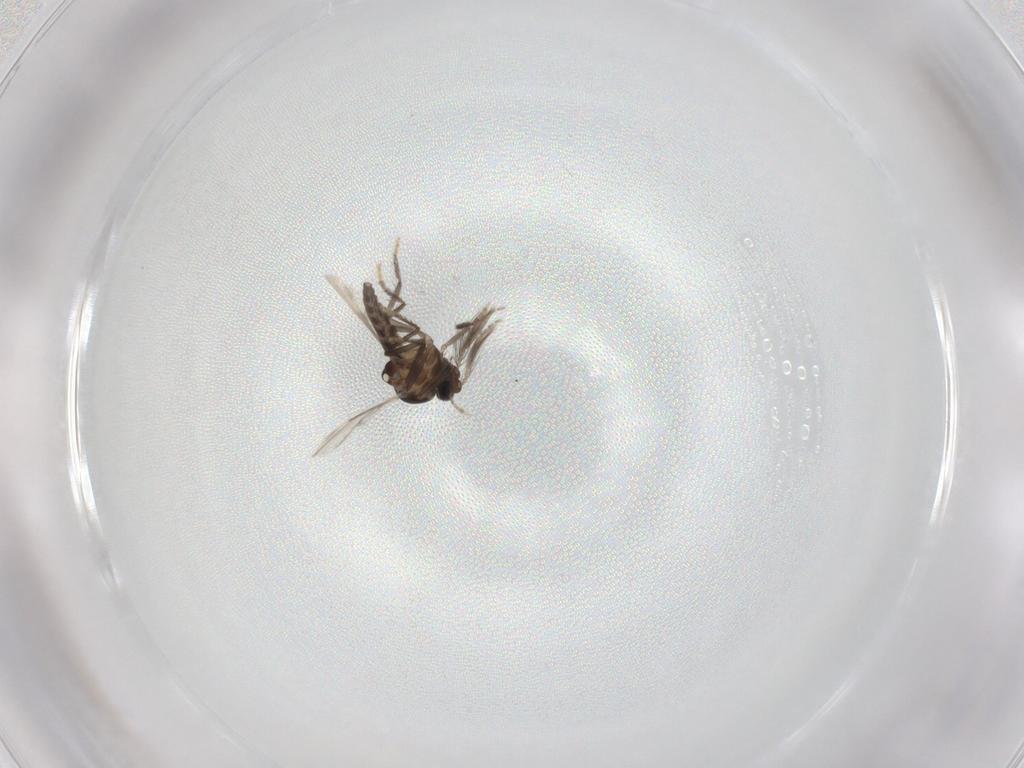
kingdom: Animalia
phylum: Arthropoda
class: Insecta
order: Diptera
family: Ceratopogonidae
